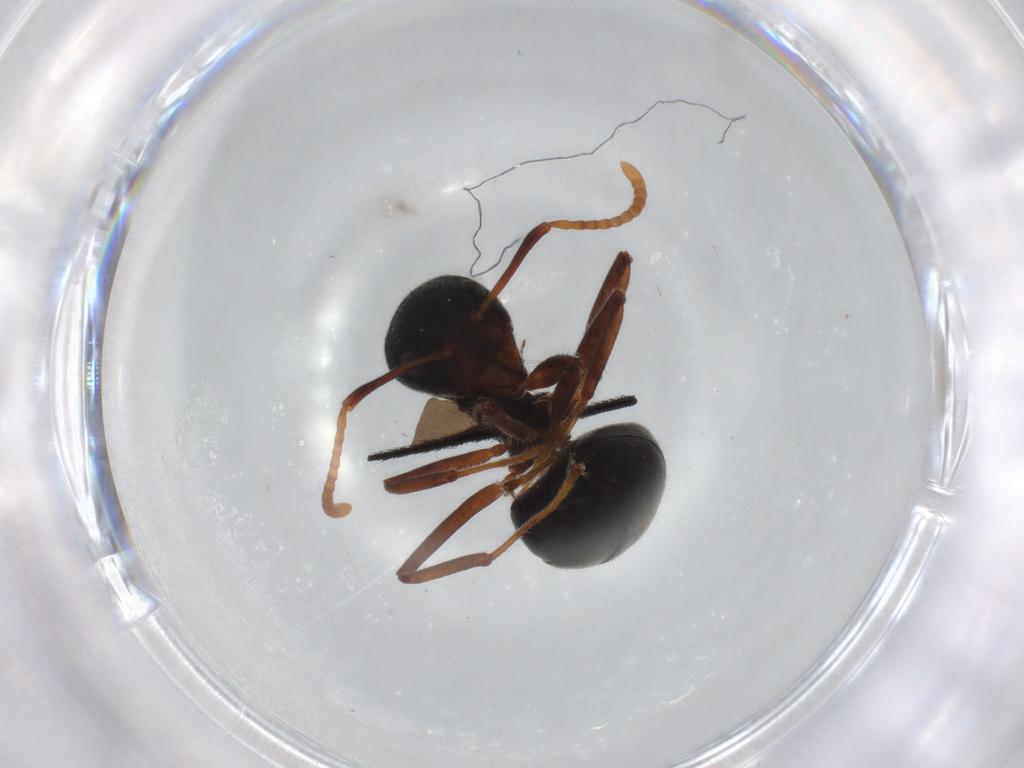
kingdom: Animalia
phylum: Arthropoda
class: Insecta
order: Hymenoptera
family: Formicidae
